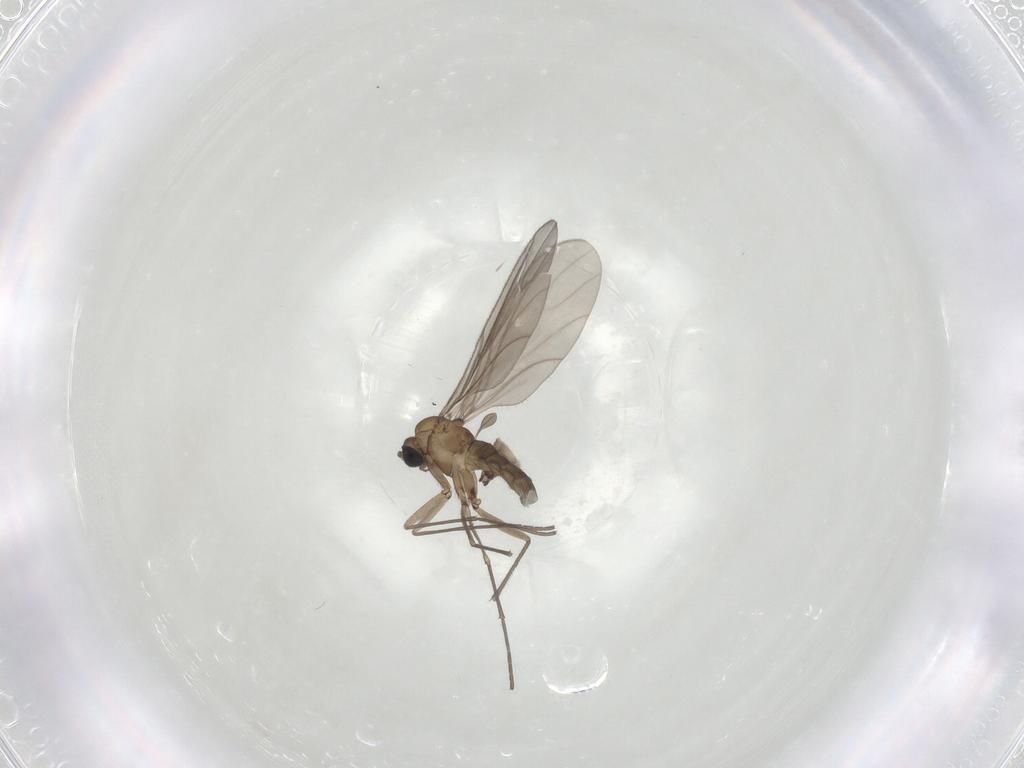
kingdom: Animalia
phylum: Arthropoda
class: Insecta
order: Diptera
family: Sciaridae
